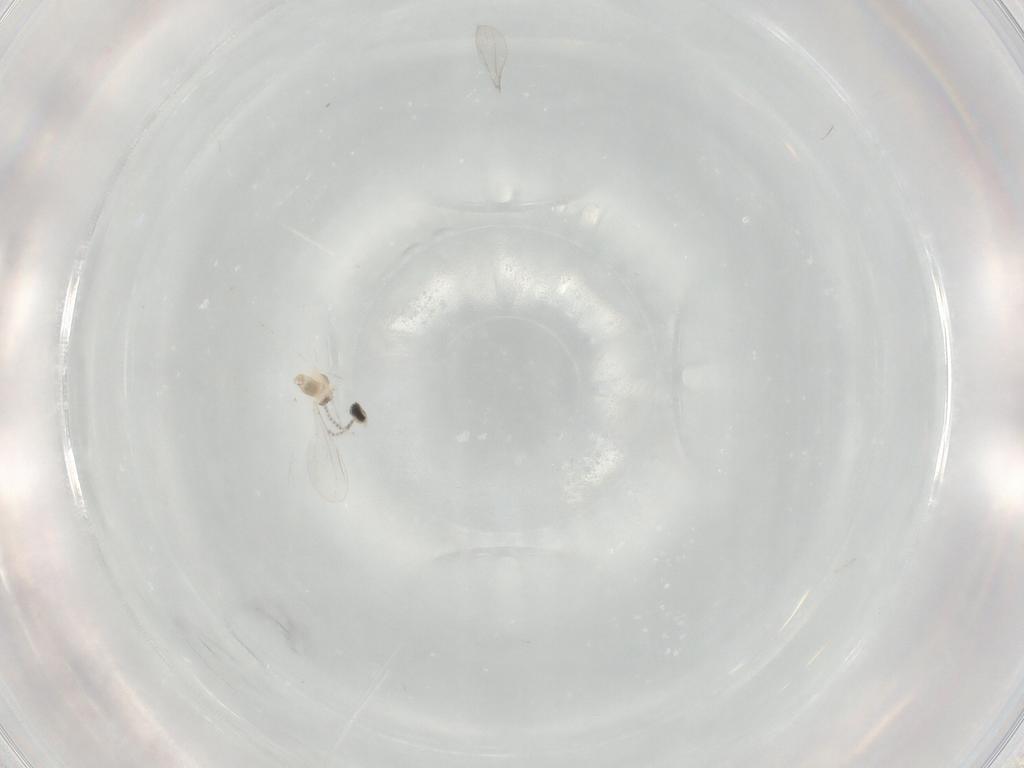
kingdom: Animalia
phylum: Arthropoda
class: Insecta
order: Diptera
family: Cecidomyiidae
